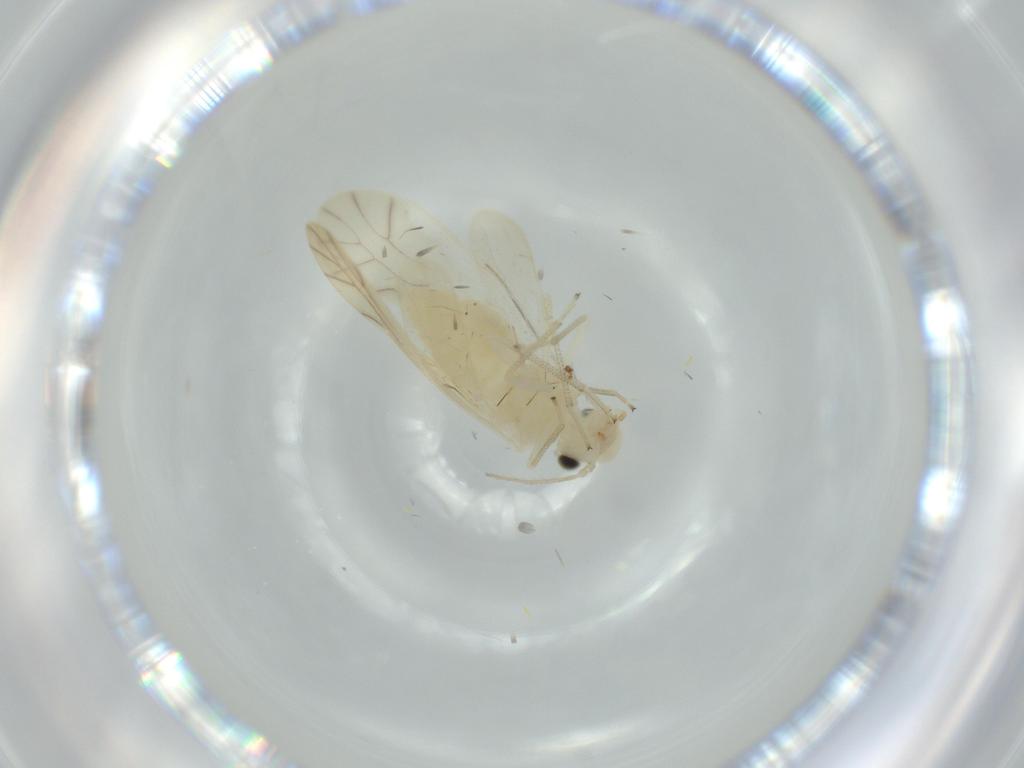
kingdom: Animalia
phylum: Arthropoda
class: Insecta
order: Psocodea
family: Caeciliusidae
